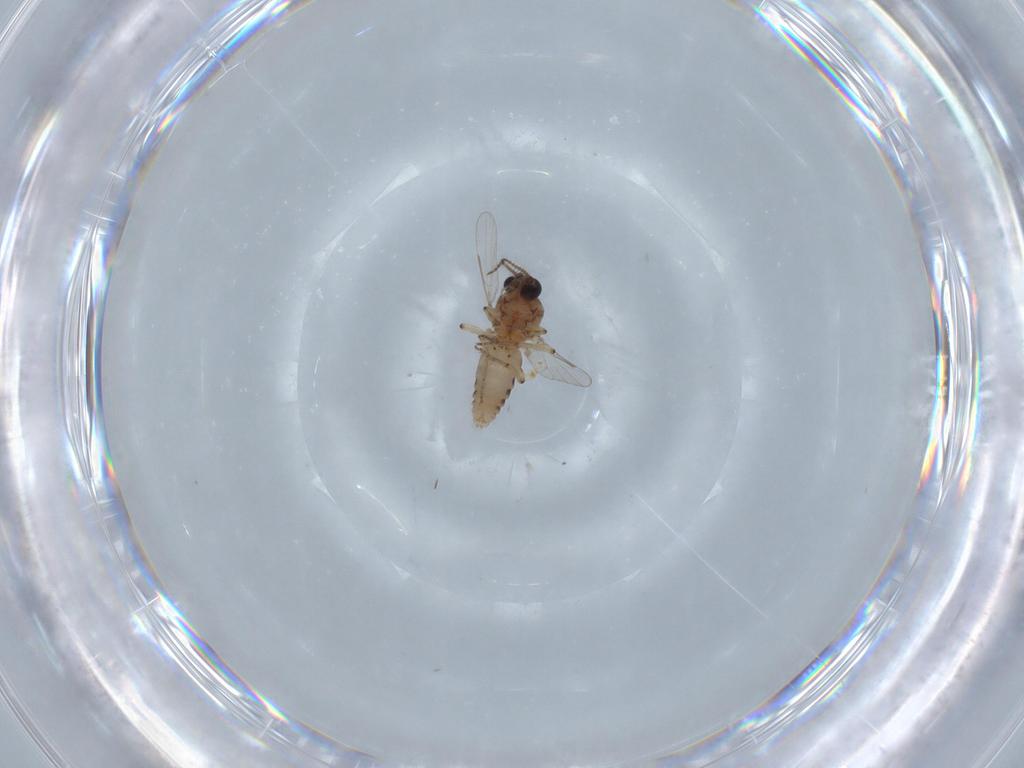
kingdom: Animalia
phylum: Arthropoda
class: Insecta
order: Diptera
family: Ceratopogonidae
